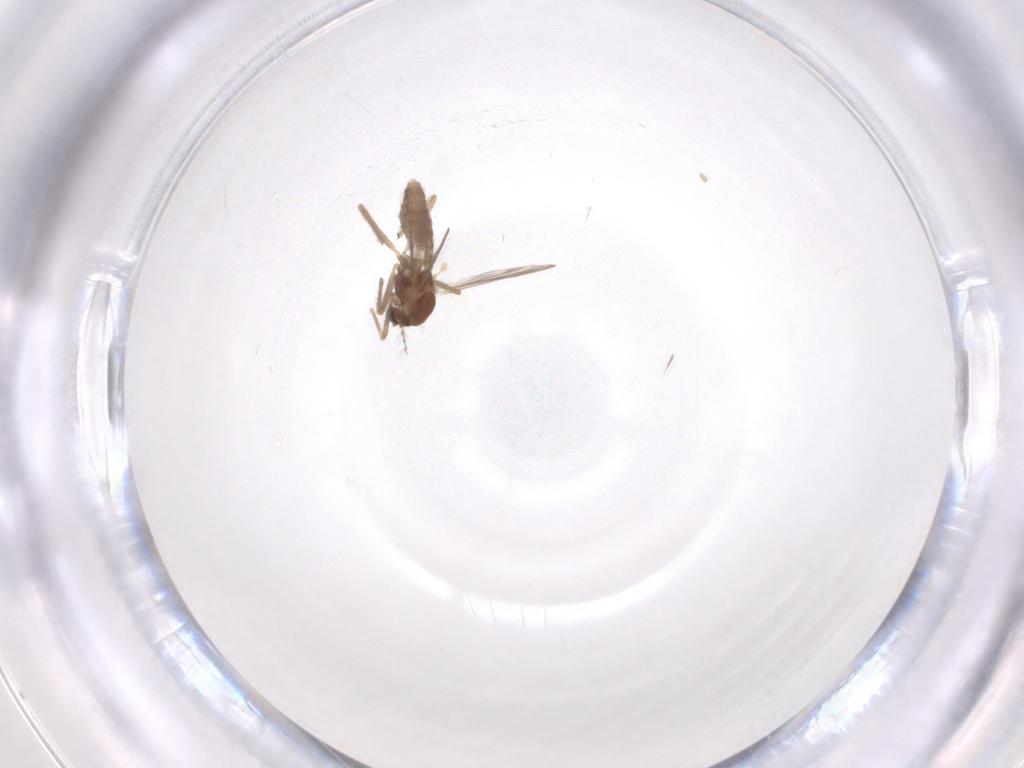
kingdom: Animalia
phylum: Arthropoda
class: Insecta
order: Diptera
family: Chironomidae
